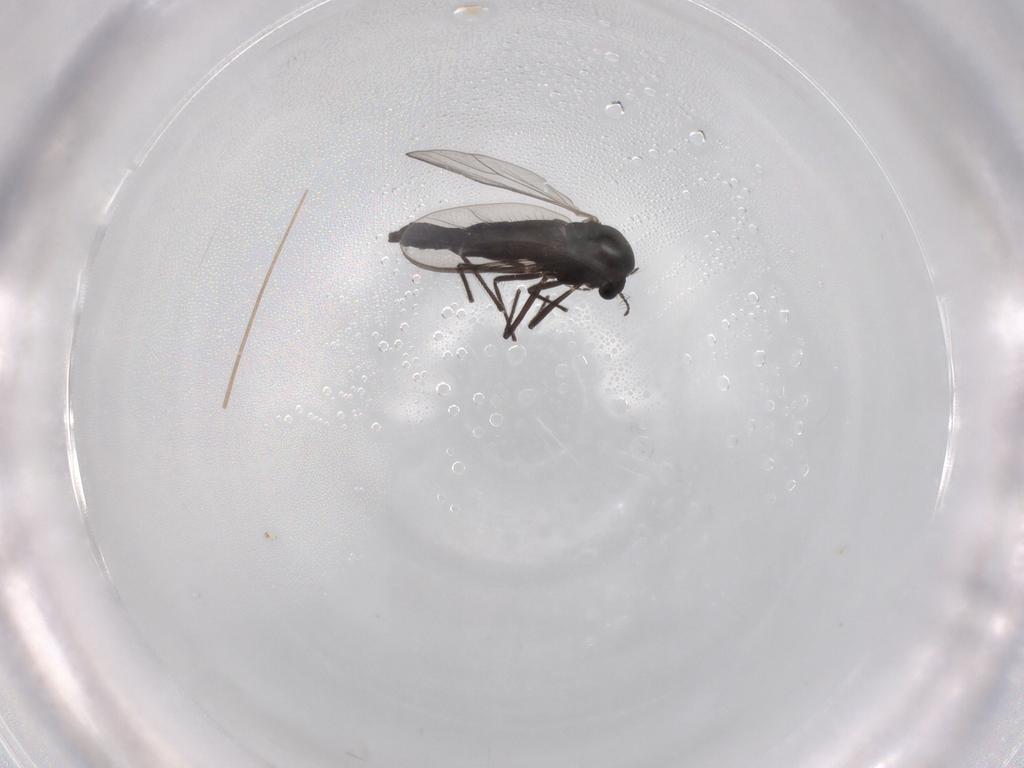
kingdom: Animalia
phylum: Arthropoda
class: Insecta
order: Diptera
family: Chironomidae
